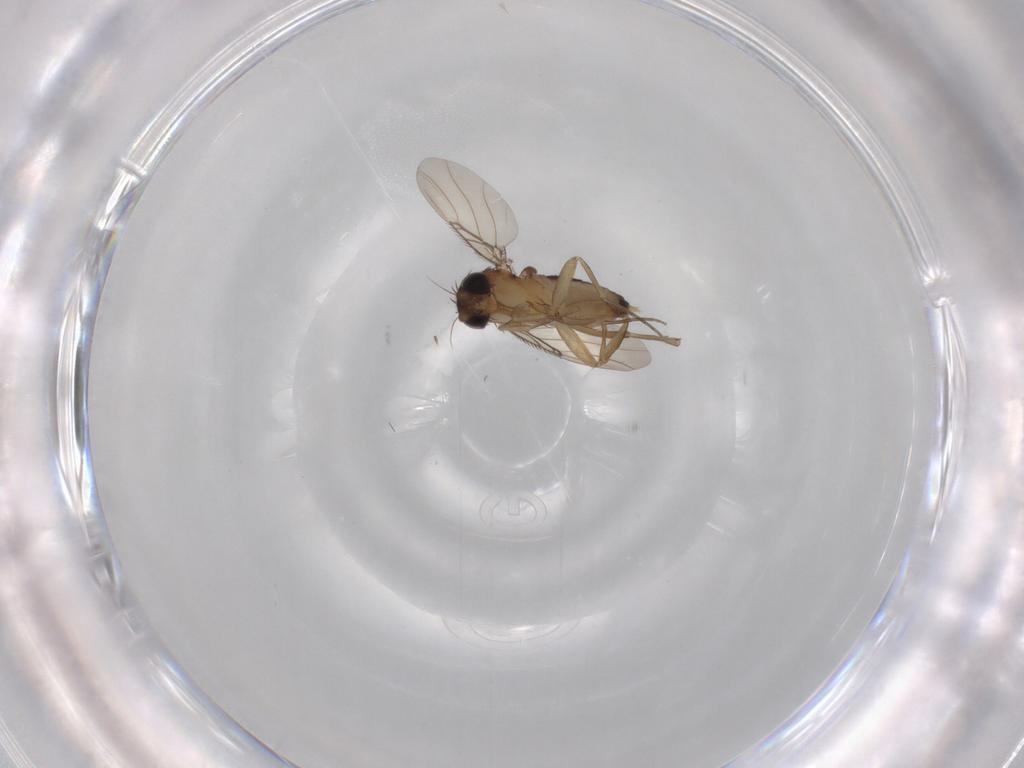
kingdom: Animalia
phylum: Arthropoda
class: Insecta
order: Diptera
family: Phoridae
